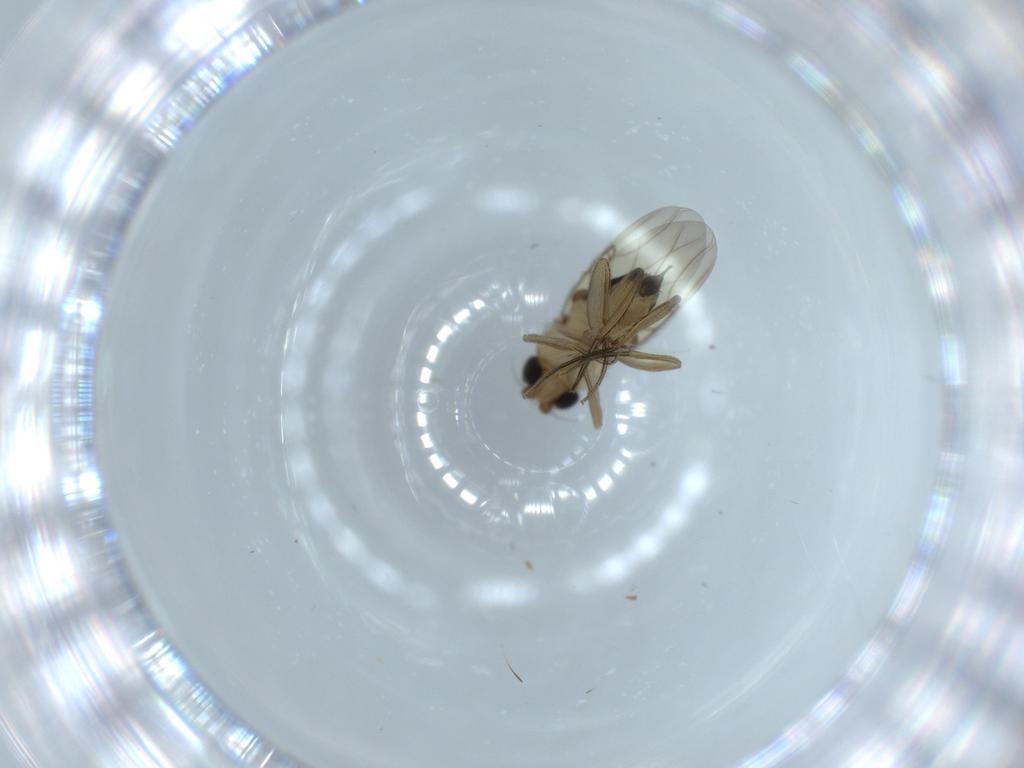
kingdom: Animalia
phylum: Arthropoda
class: Insecta
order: Diptera
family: Phoridae
